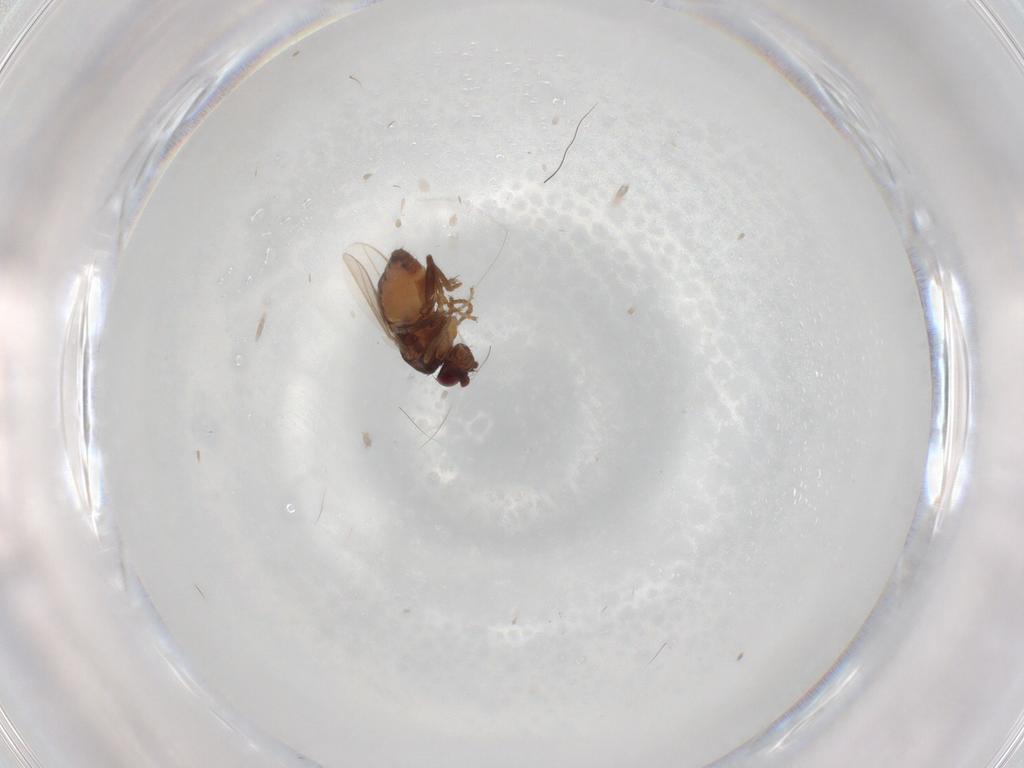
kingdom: Animalia
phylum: Arthropoda
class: Insecta
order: Diptera
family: Sphaeroceridae
